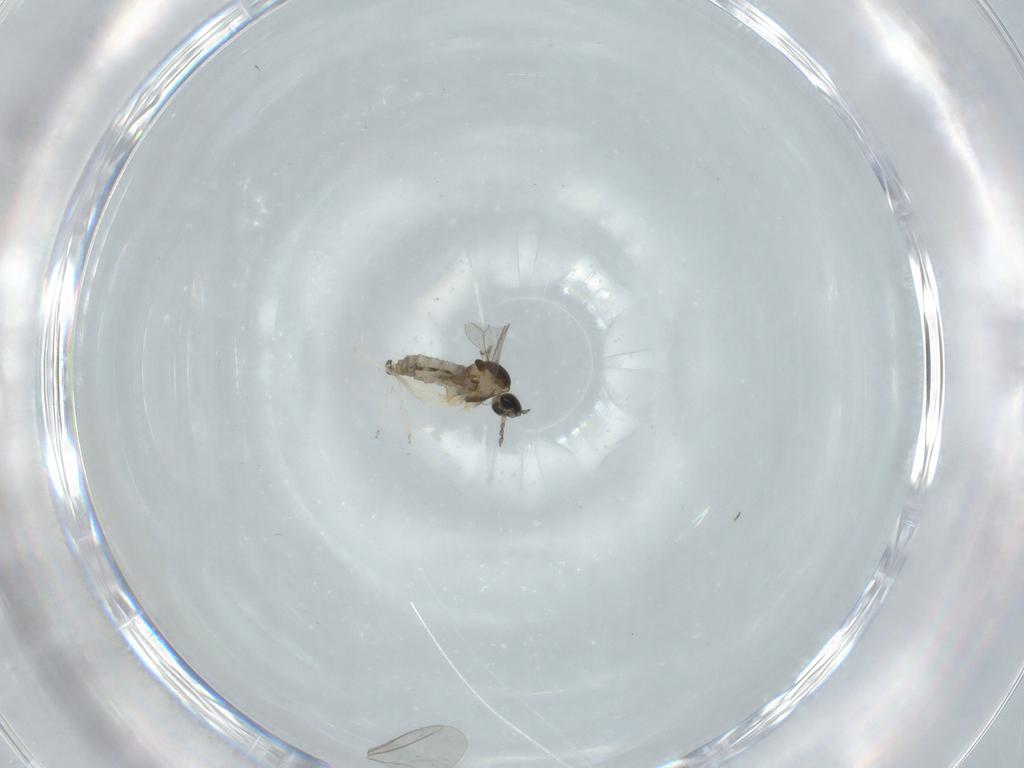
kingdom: Animalia
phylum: Arthropoda
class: Insecta
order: Diptera
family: Cecidomyiidae
